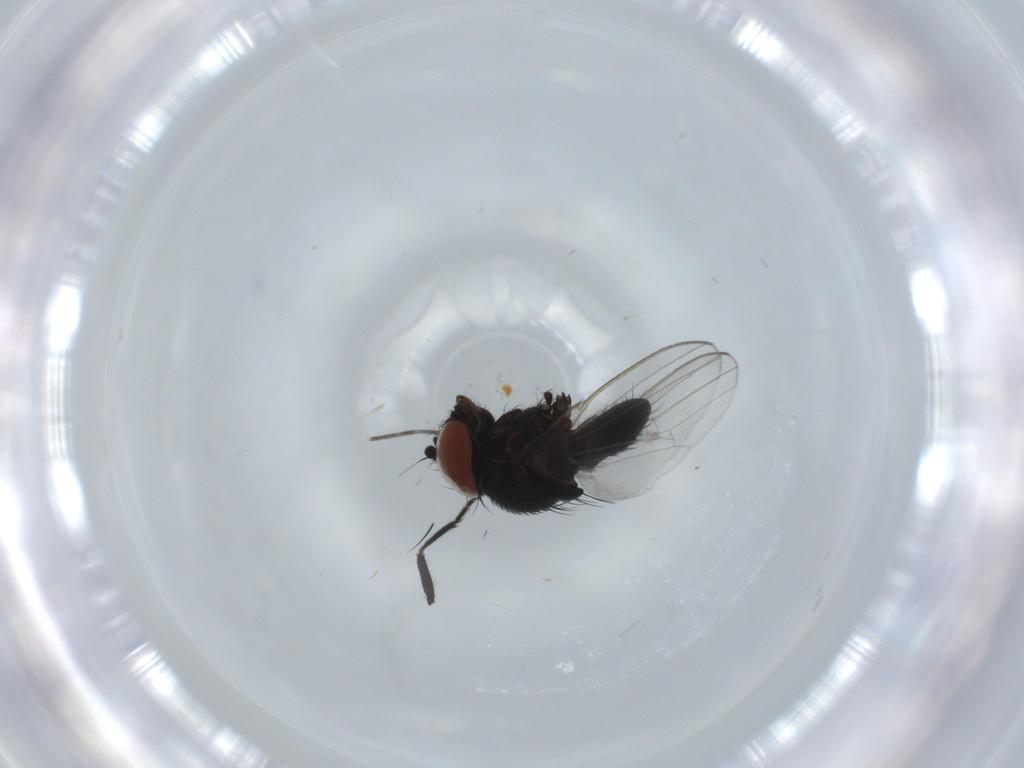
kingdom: Animalia
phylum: Arthropoda
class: Insecta
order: Diptera
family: Cecidomyiidae
